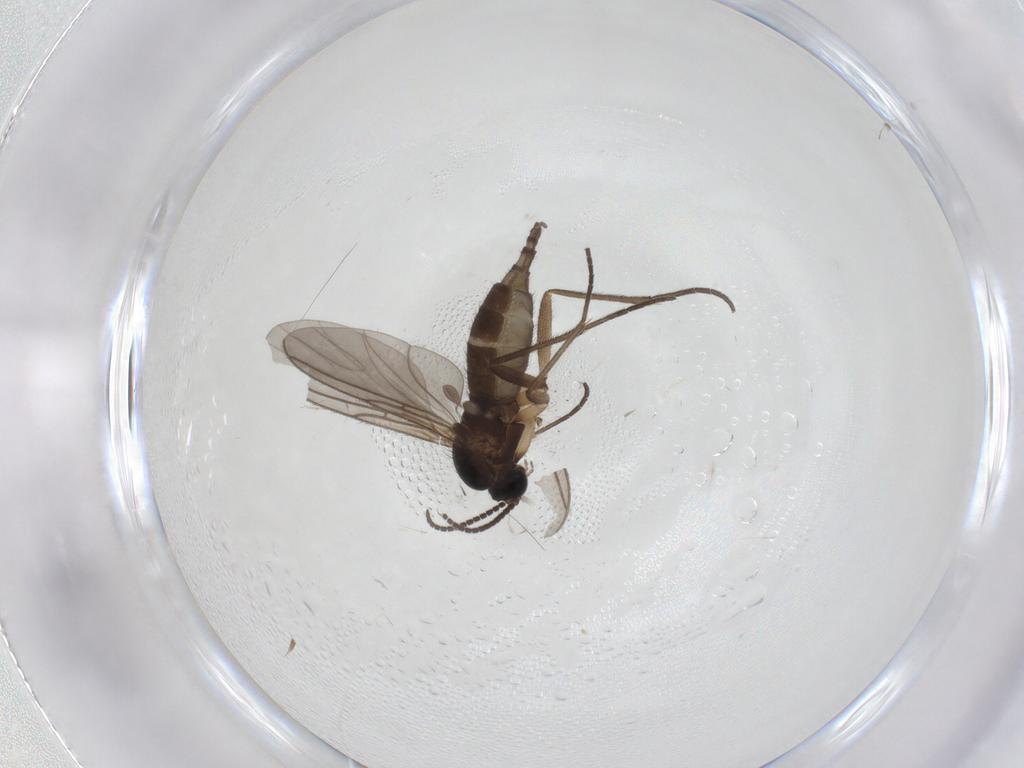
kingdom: Animalia
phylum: Arthropoda
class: Insecta
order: Diptera
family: Sciaridae
